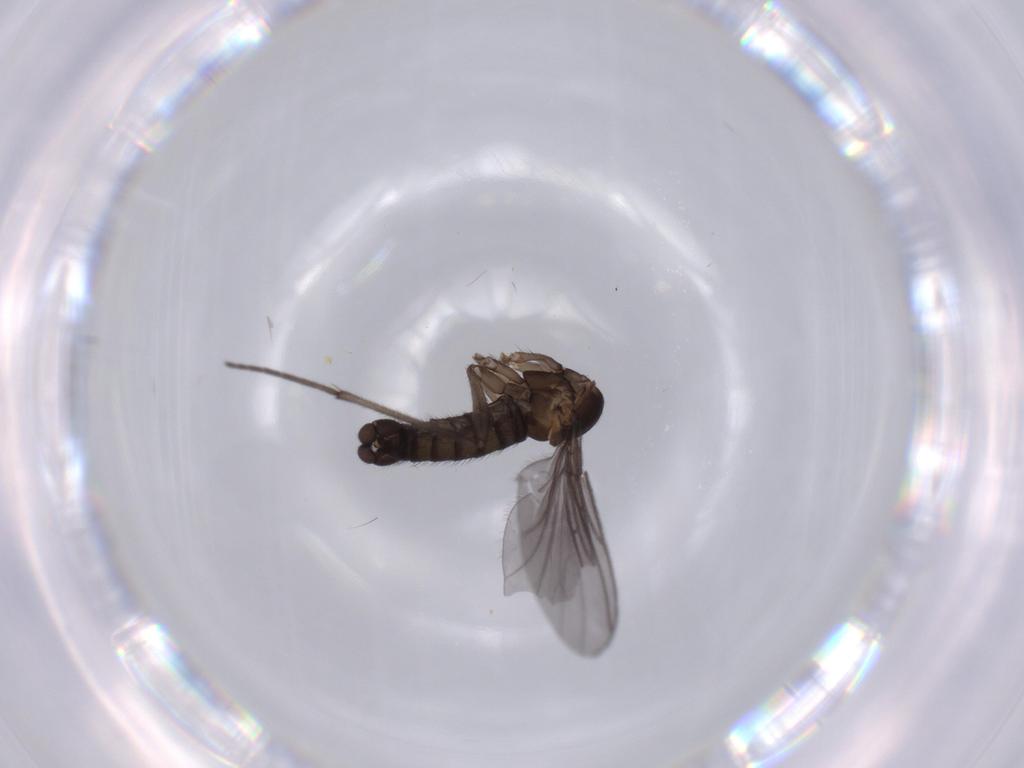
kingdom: Animalia
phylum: Arthropoda
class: Insecta
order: Diptera
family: Sciaridae
